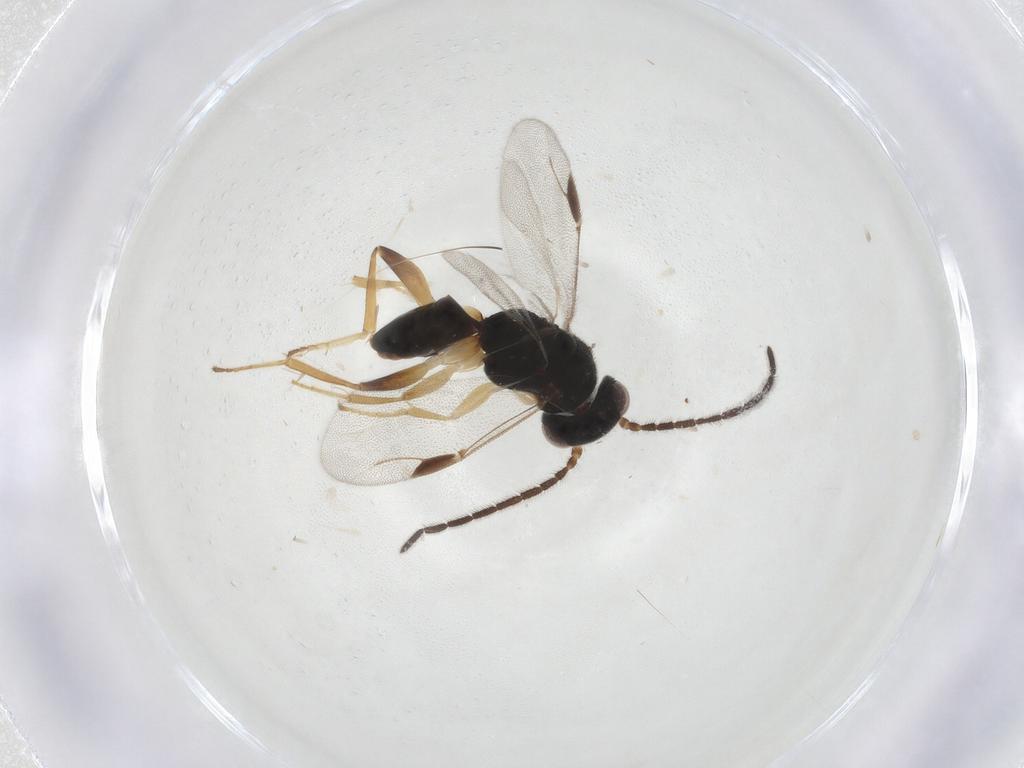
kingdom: Animalia
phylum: Arthropoda
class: Insecta
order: Hymenoptera
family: Dryinidae
